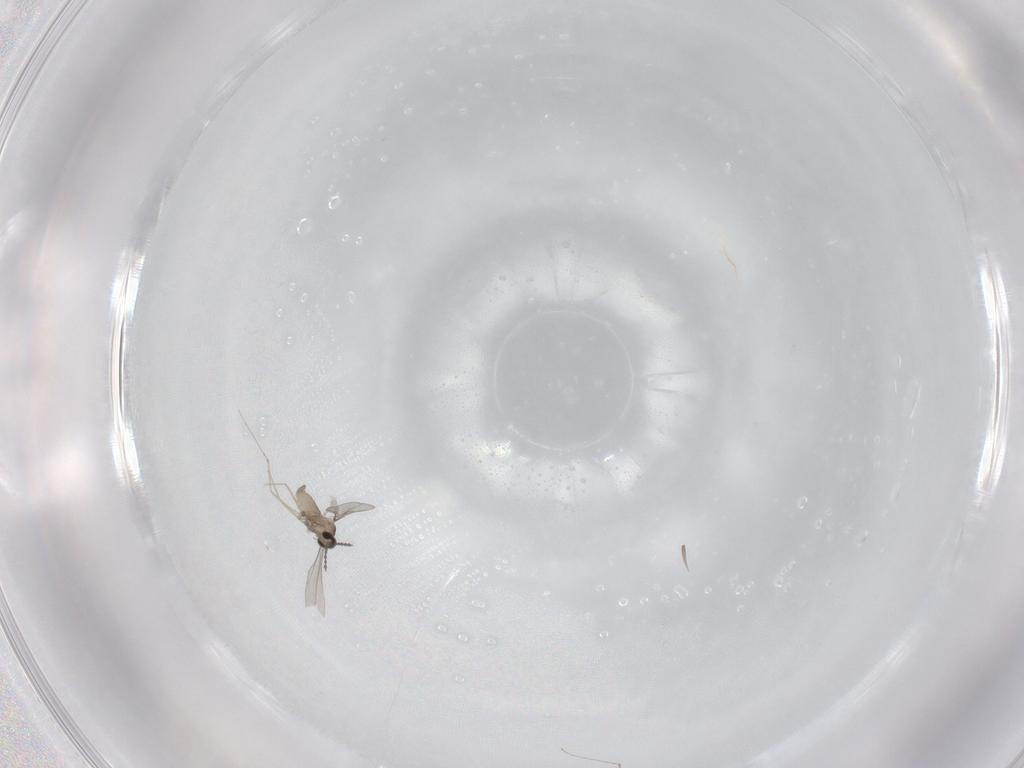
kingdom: Animalia
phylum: Arthropoda
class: Insecta
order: Diptera
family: Cecidomyiidae
